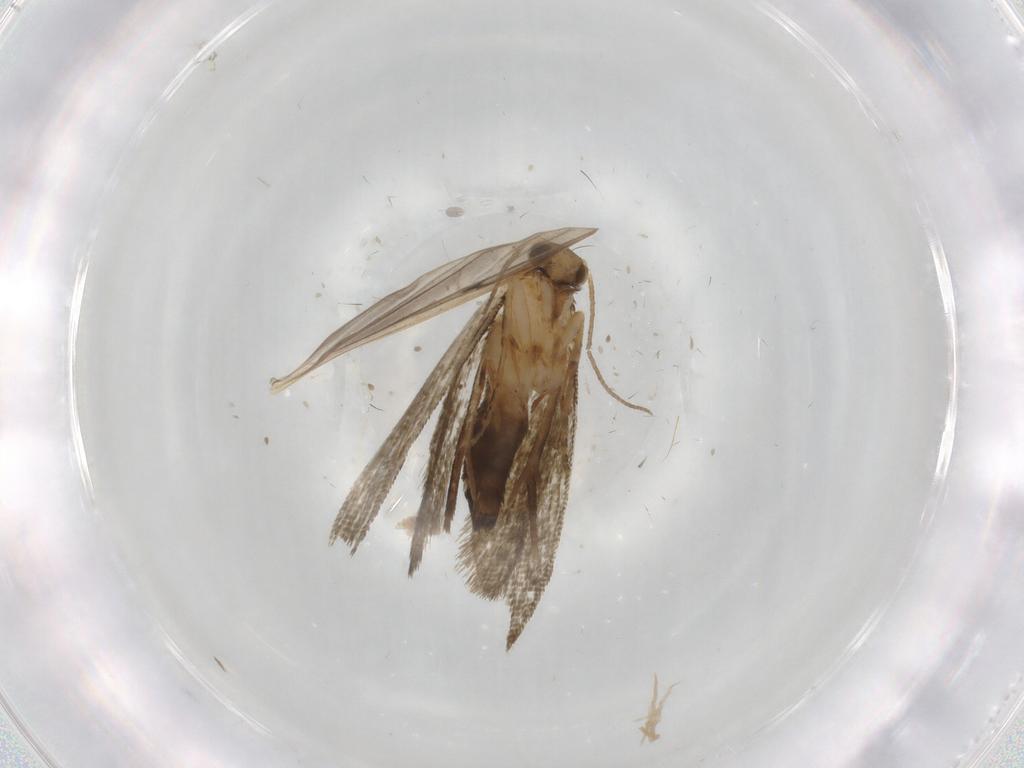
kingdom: Animalia
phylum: Arthropoda
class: Insecta
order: Lepidoptera
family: Crambidae
